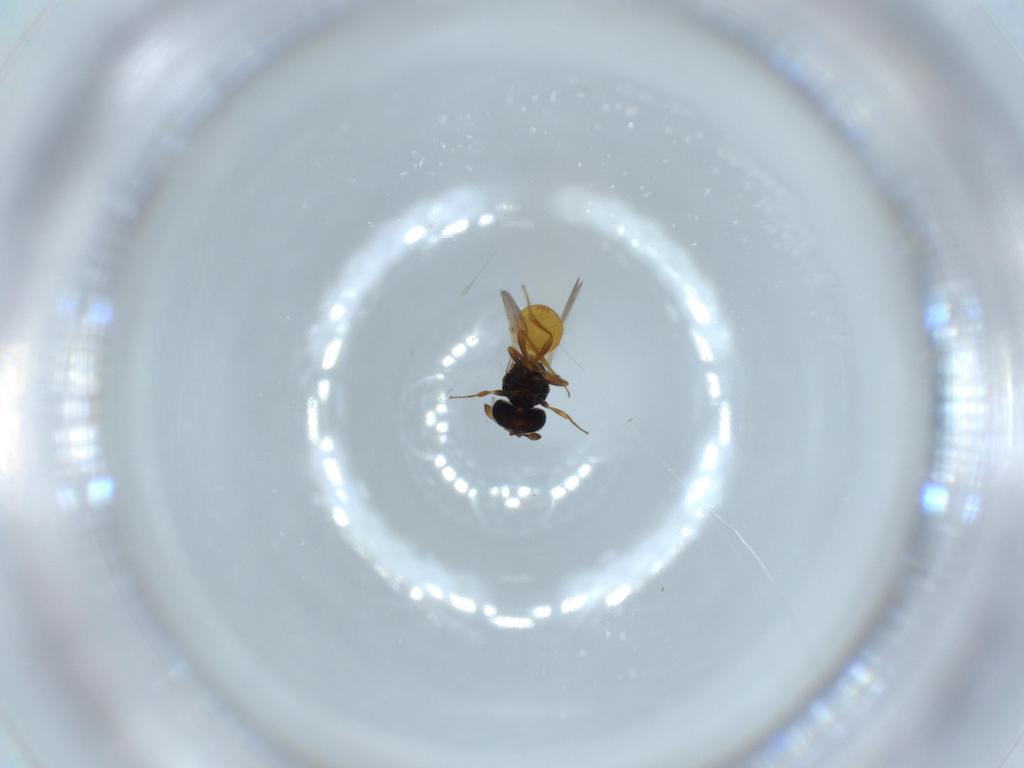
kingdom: Animalia
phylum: Arthropoda
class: Insecta
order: Hymenoptera
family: Scelionidae
